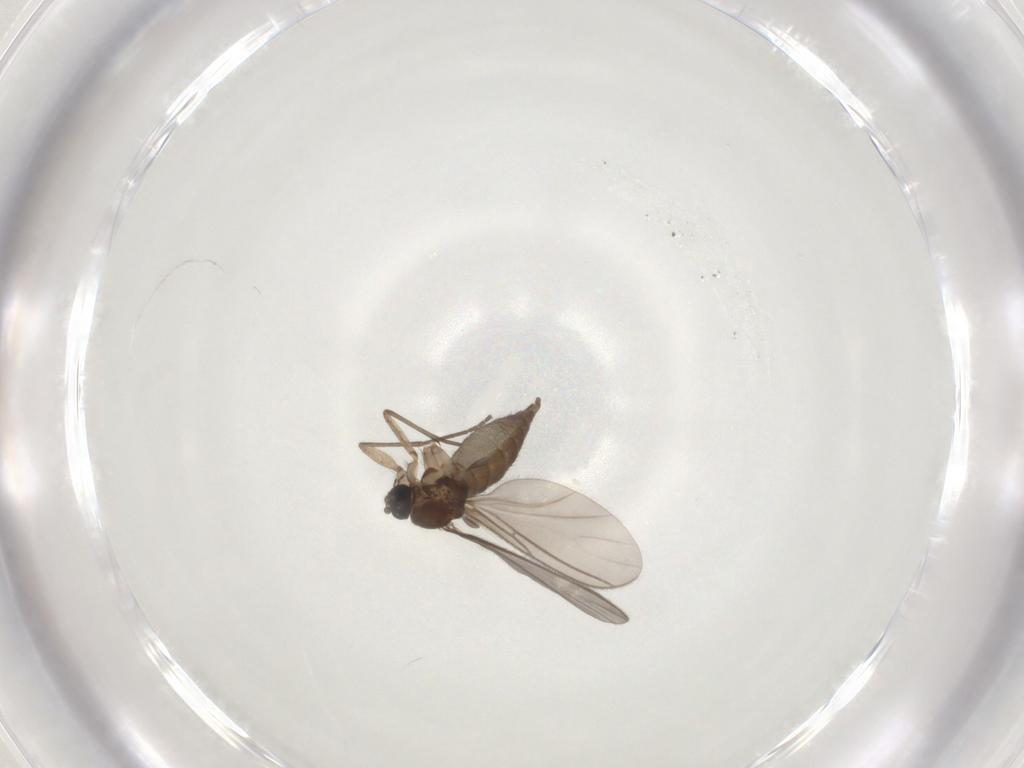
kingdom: Animalia
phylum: Arthropoda
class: Insecta
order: Diptera
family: Sciaridae
